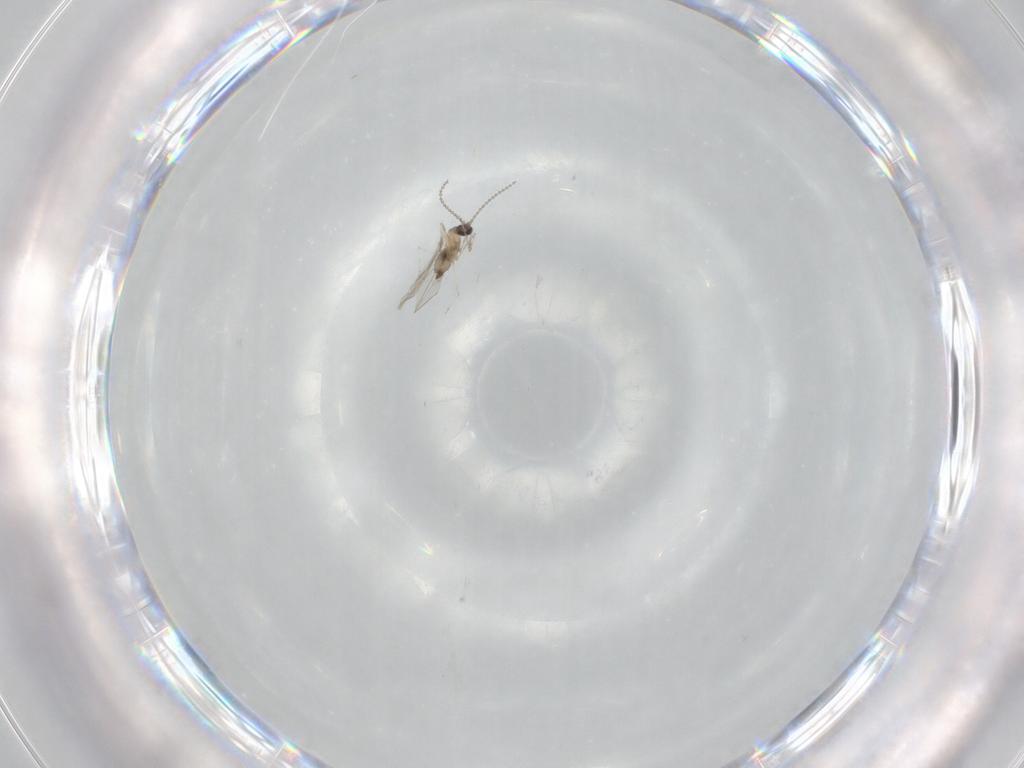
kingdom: Animalia
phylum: Arthropoda
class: Insecta
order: Diptera
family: Cecidomyiidae
